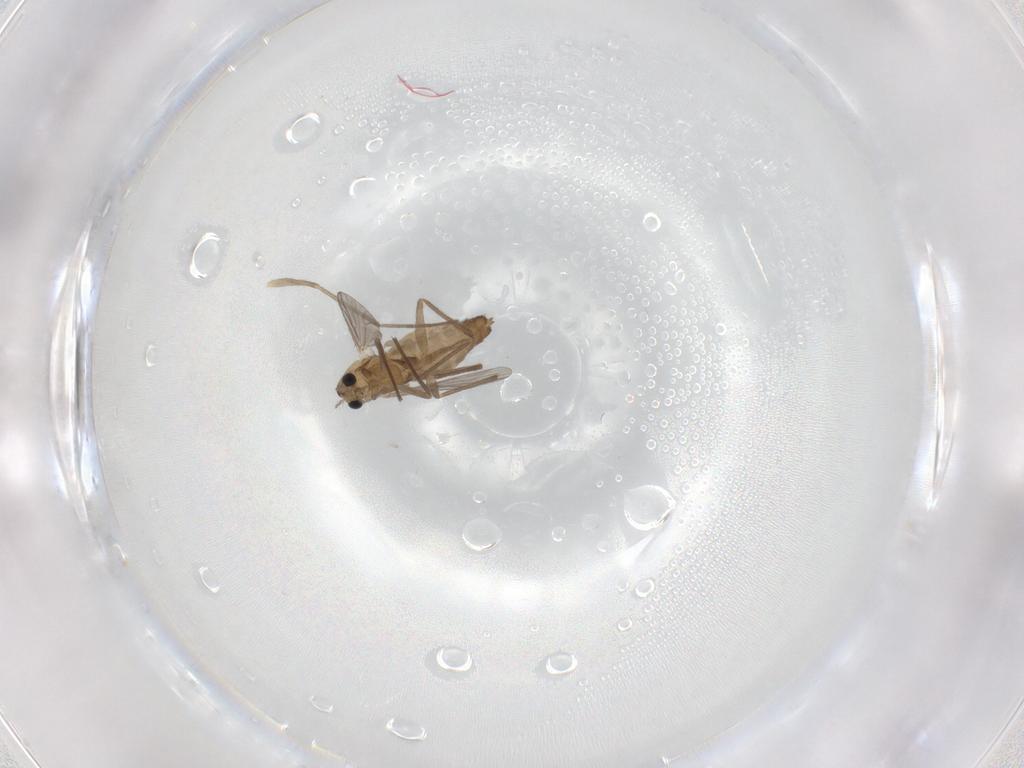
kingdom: Animalia
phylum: Arthropoda
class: Insecta
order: Diptera
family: Chironomidae
